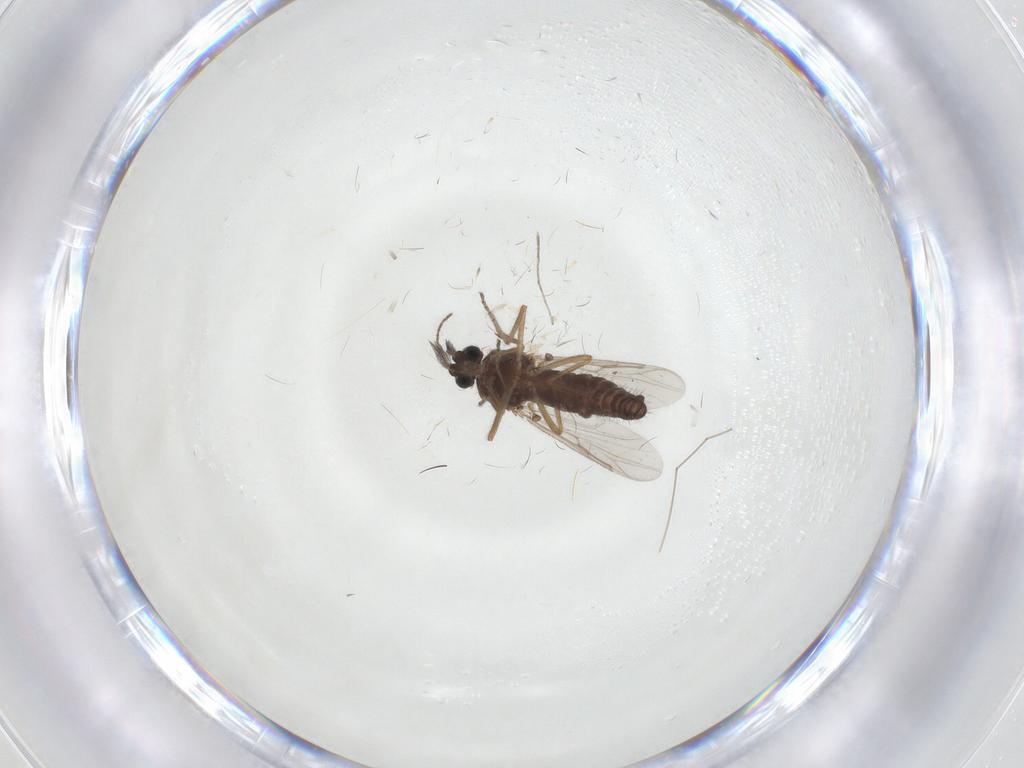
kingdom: Animalia
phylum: Arthropoda
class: Insecta
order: Diptera
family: Ceratopogonidae
